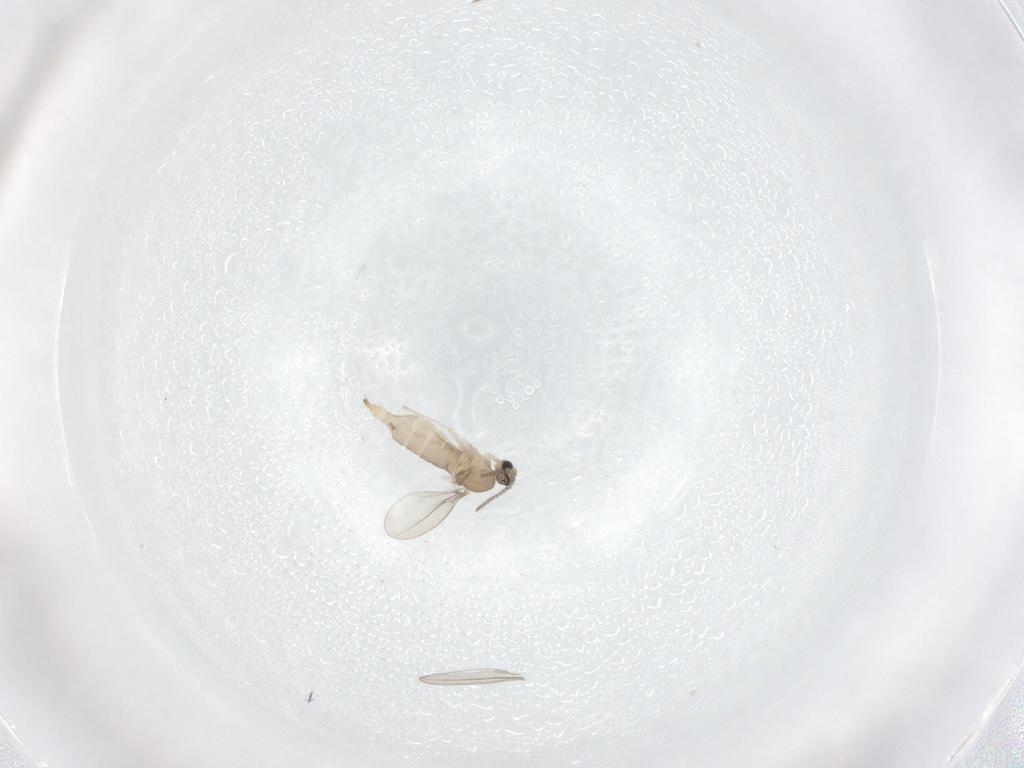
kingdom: Animalia
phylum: Arthropoda
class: Insecta
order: Diptera
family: Cecidomyiidae
